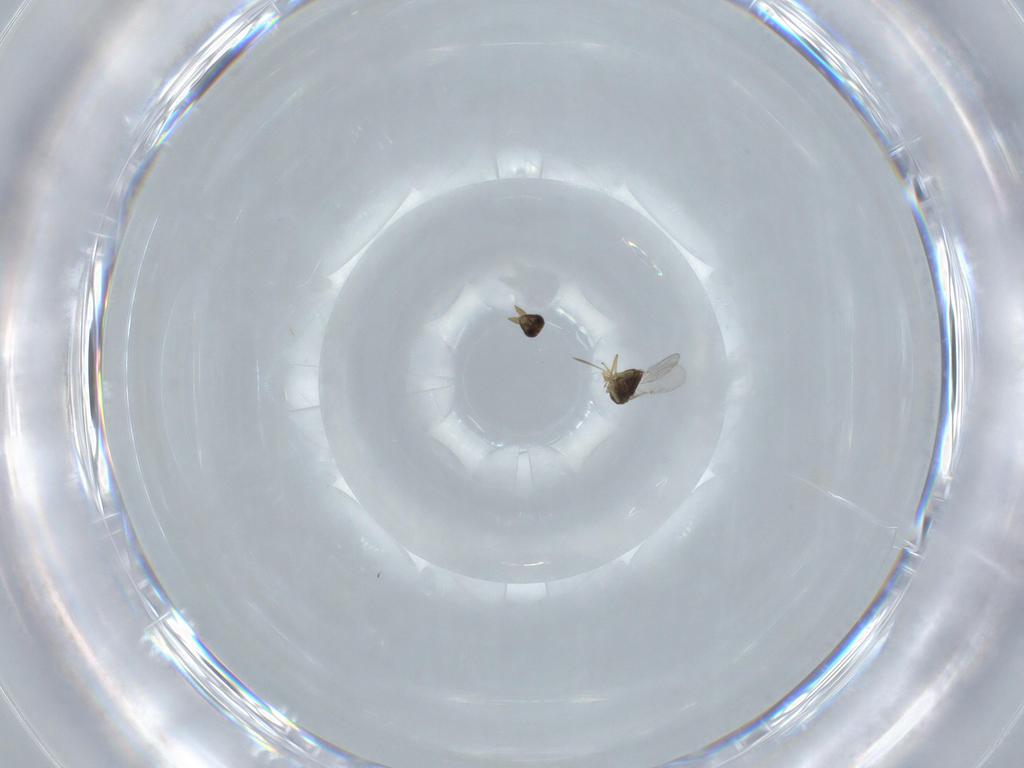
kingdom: Animalia
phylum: Arthropoda
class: Insecta
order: Hymenoptera
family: Encyrtidae
